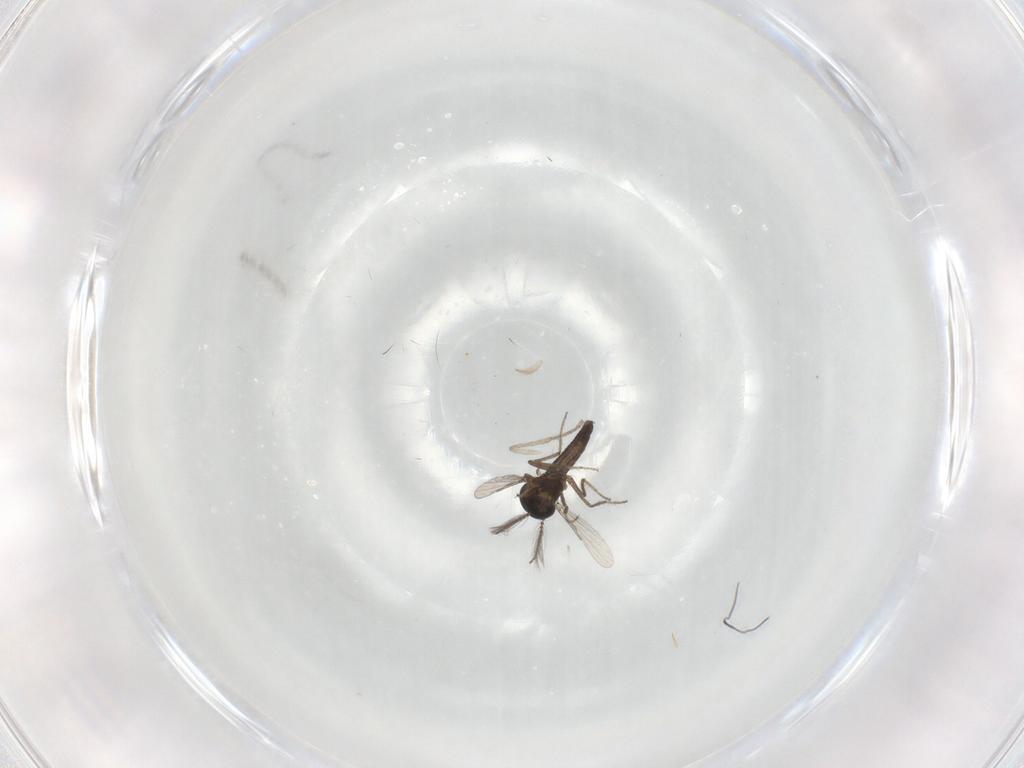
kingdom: Animalia
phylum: Arthropoda
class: Insecta
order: Diptera
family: Ceratopogonidae
